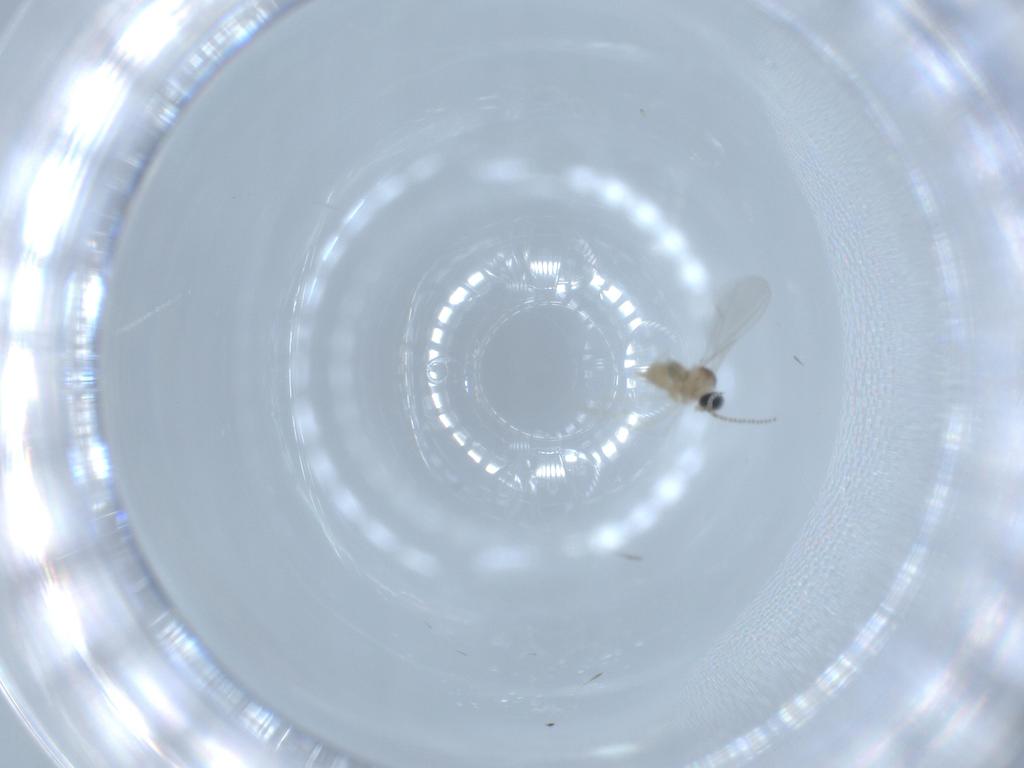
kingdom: Animalia
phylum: Arthropoda
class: Insecta
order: Diptera
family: Cecidomyiidae
